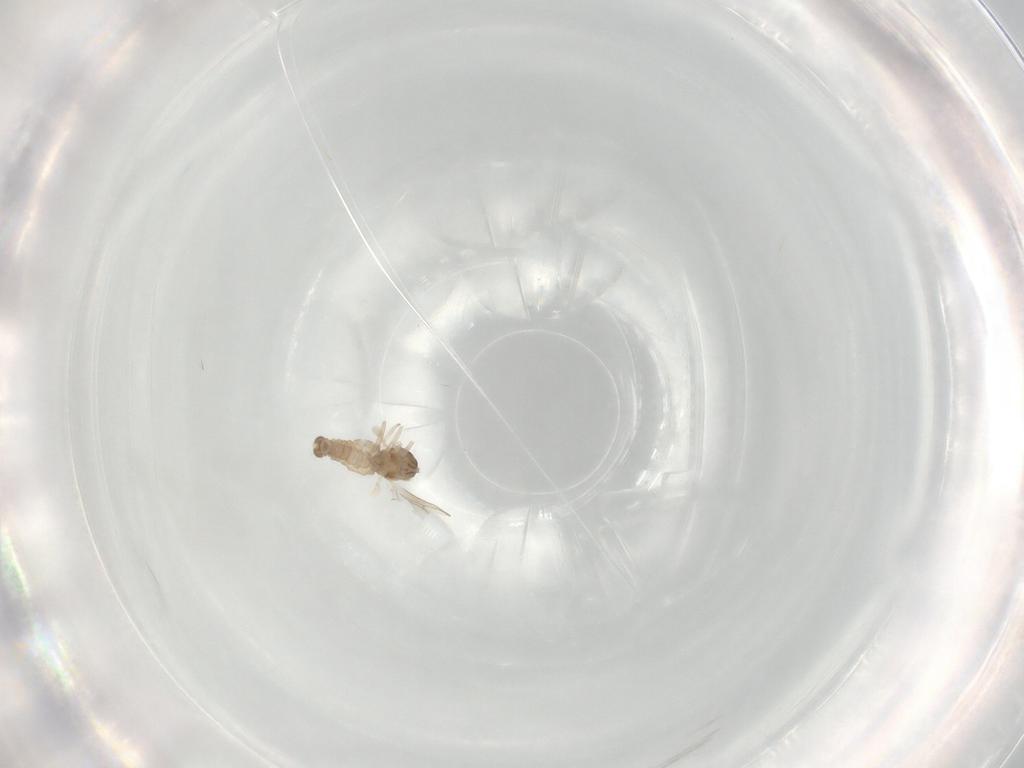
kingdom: Animalia
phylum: Arthropoda
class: Insecta
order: Diptera
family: Cecidomyiidae
